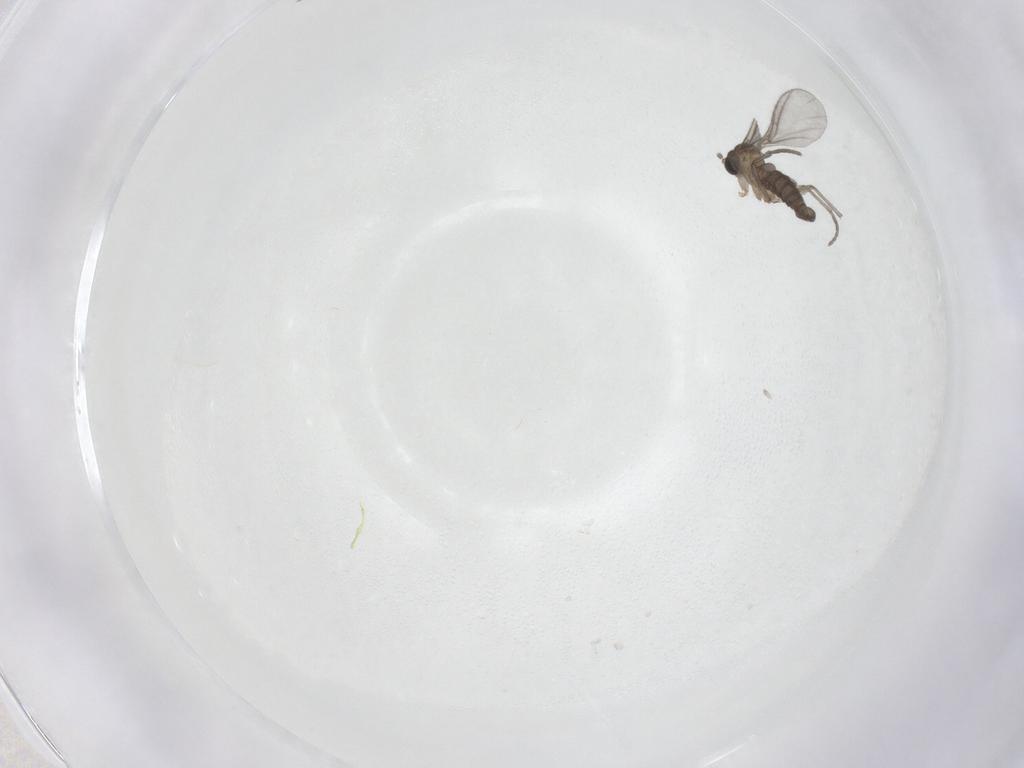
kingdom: Animalia
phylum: Arthropoda
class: Insecta
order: Diptera
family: Sciaridae
